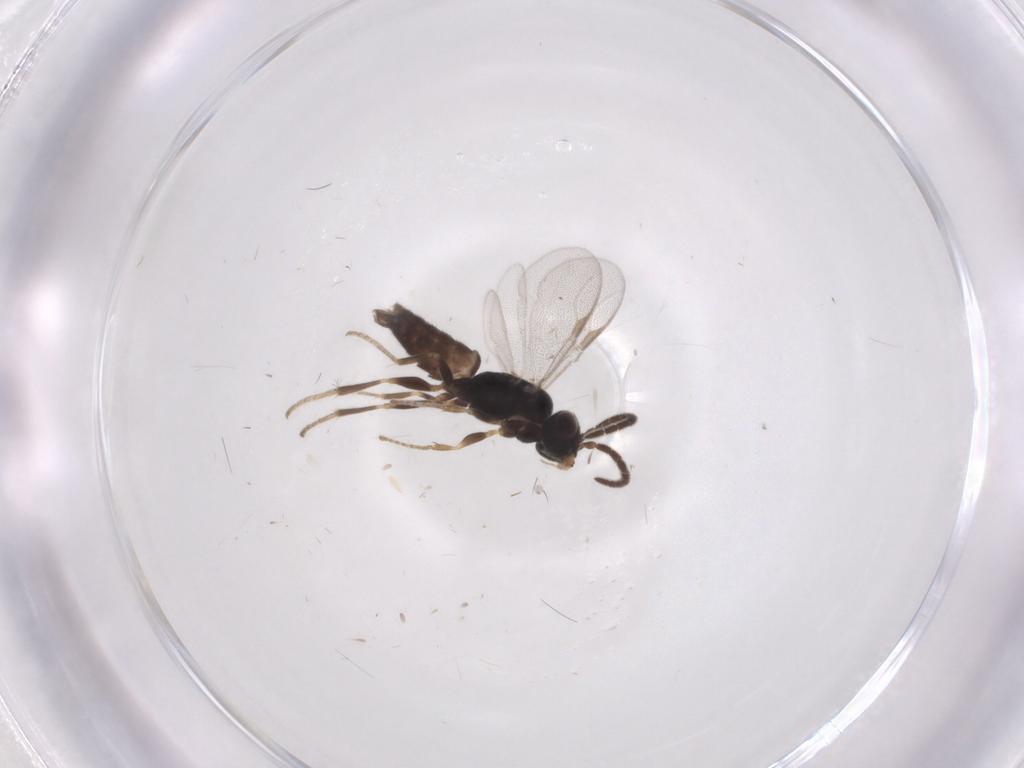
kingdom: Animalia
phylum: Arthropoda
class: Insecta
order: Hymenoptera
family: Dryinidae
